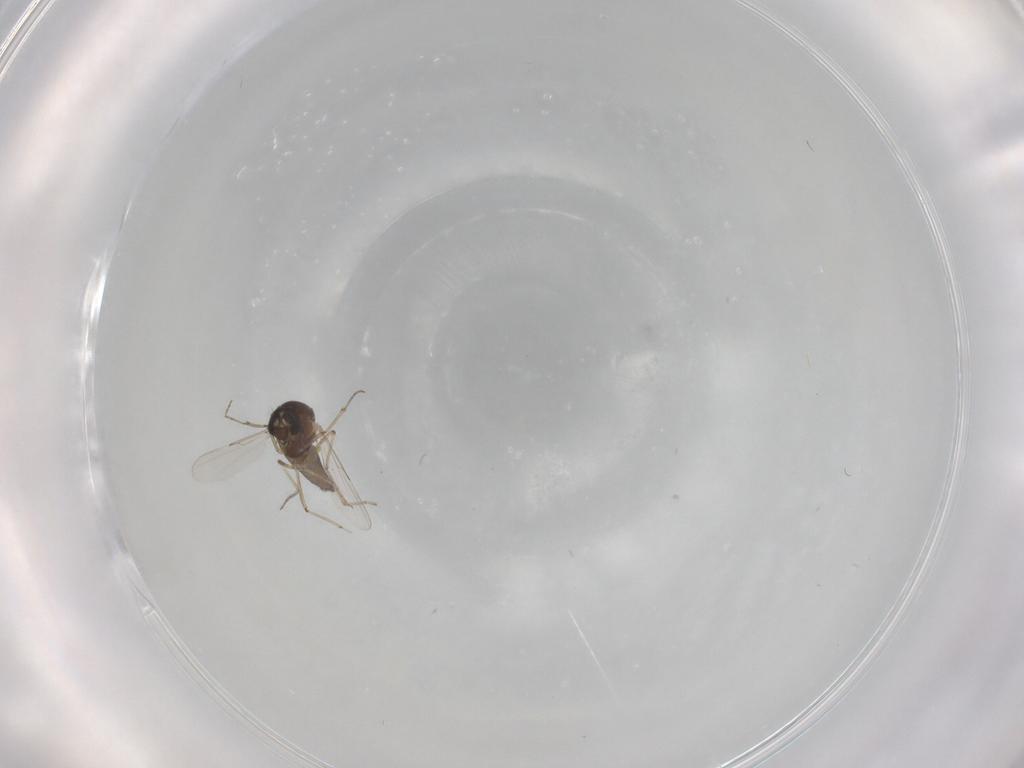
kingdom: Animalia
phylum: Arthropoda
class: Insecta
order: Diptera
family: Ceratopogonidae
